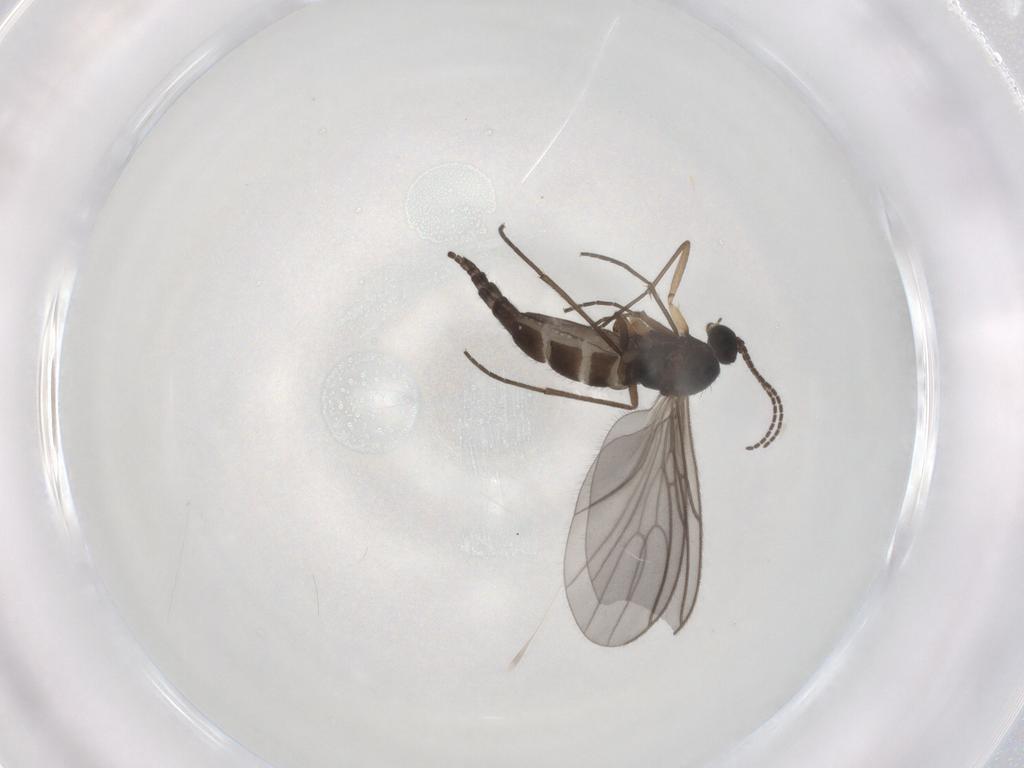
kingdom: Animalia
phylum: Arthropoda
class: Insecta
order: Diptera
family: Sciaridae
